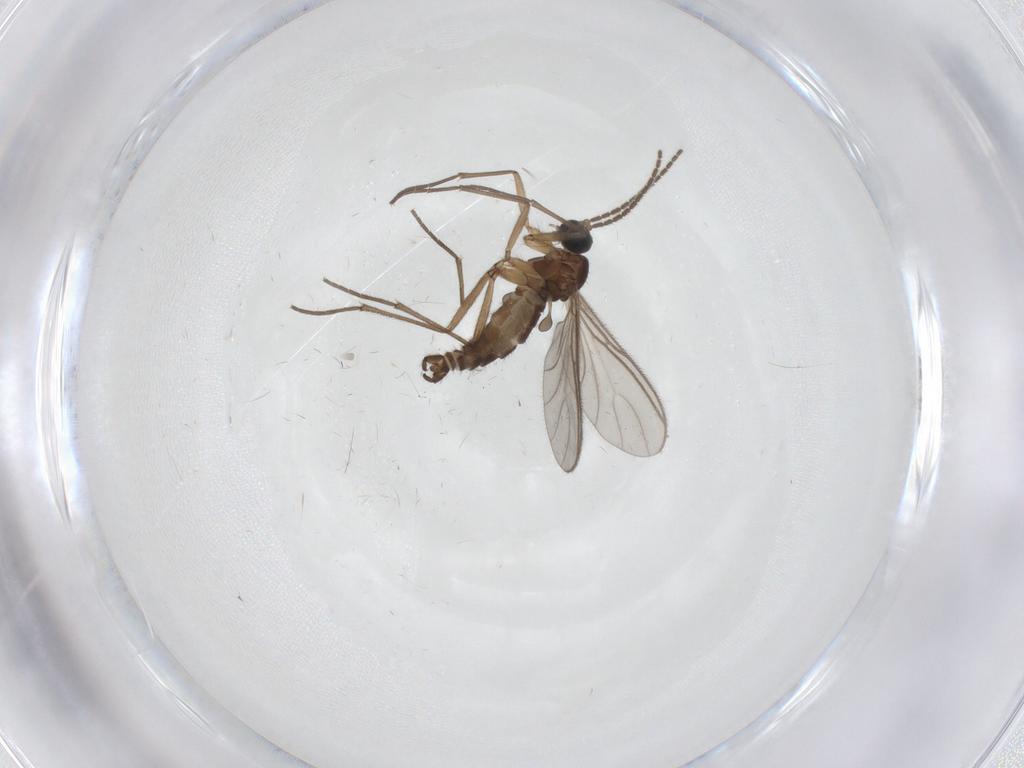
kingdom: Animalia
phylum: Arthropoda
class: Insecta
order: Diptera
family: Sciaridae
